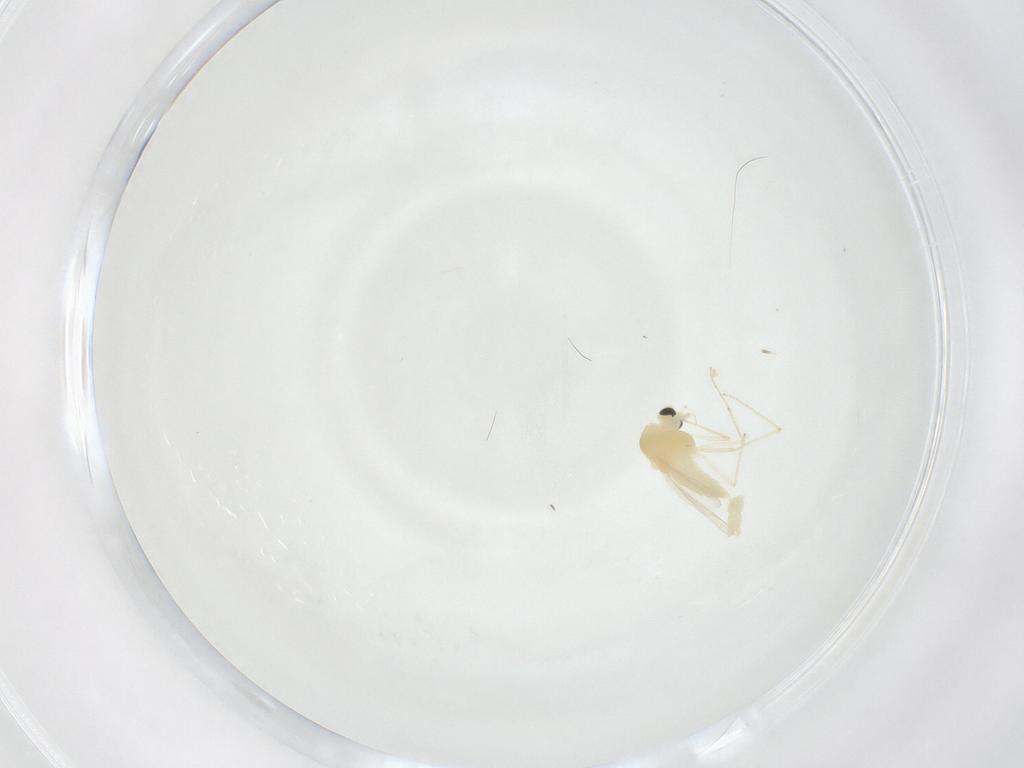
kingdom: Animalia
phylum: Arthropoda
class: Insecta
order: Diptera
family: Chironomidae
